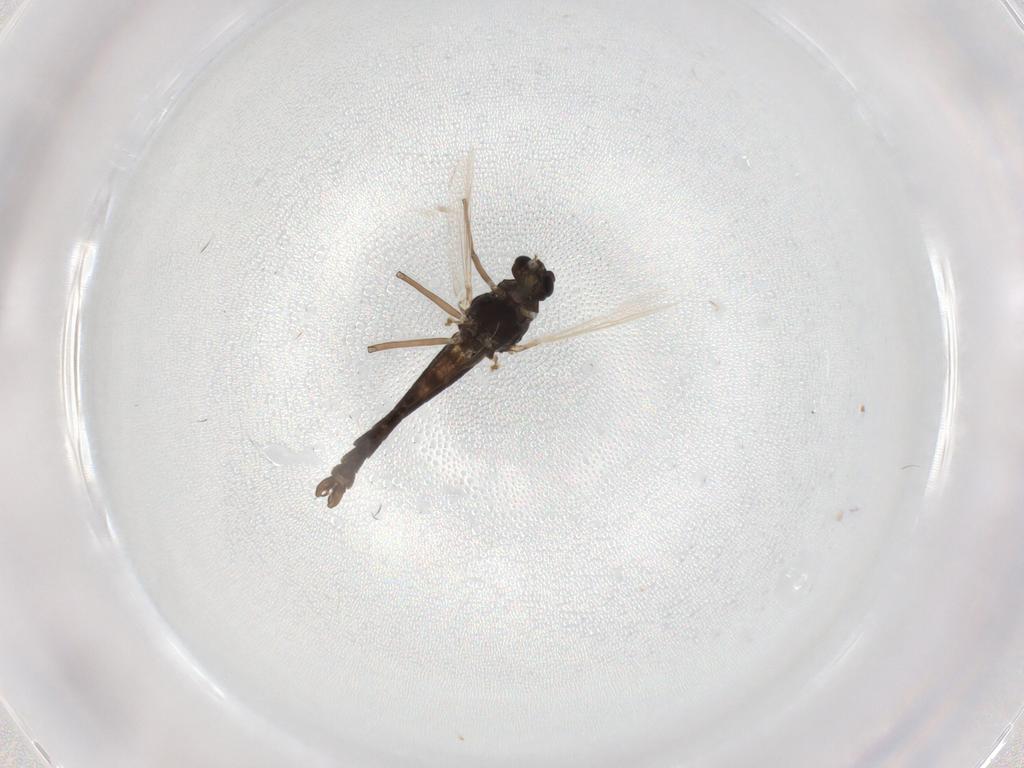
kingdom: Animalia
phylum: Arthropoda
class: Insecta
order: Diptera
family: Chironomidae
